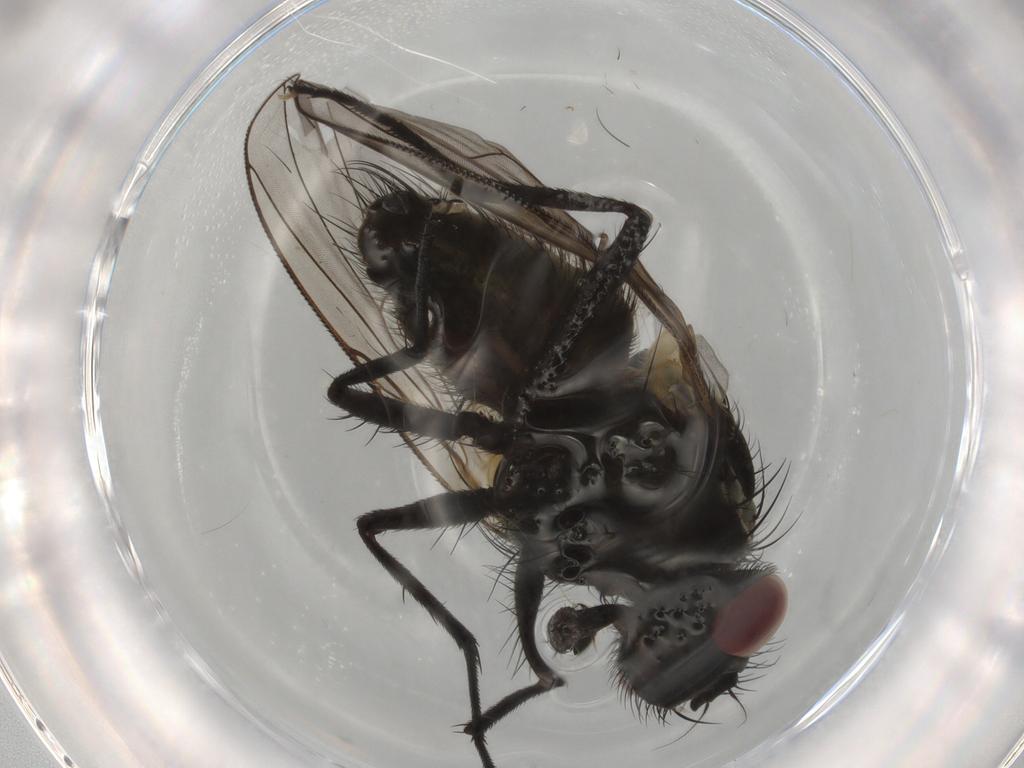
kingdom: Animalia
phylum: Arthropoda
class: Insecta
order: Diptera
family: Muscidae
